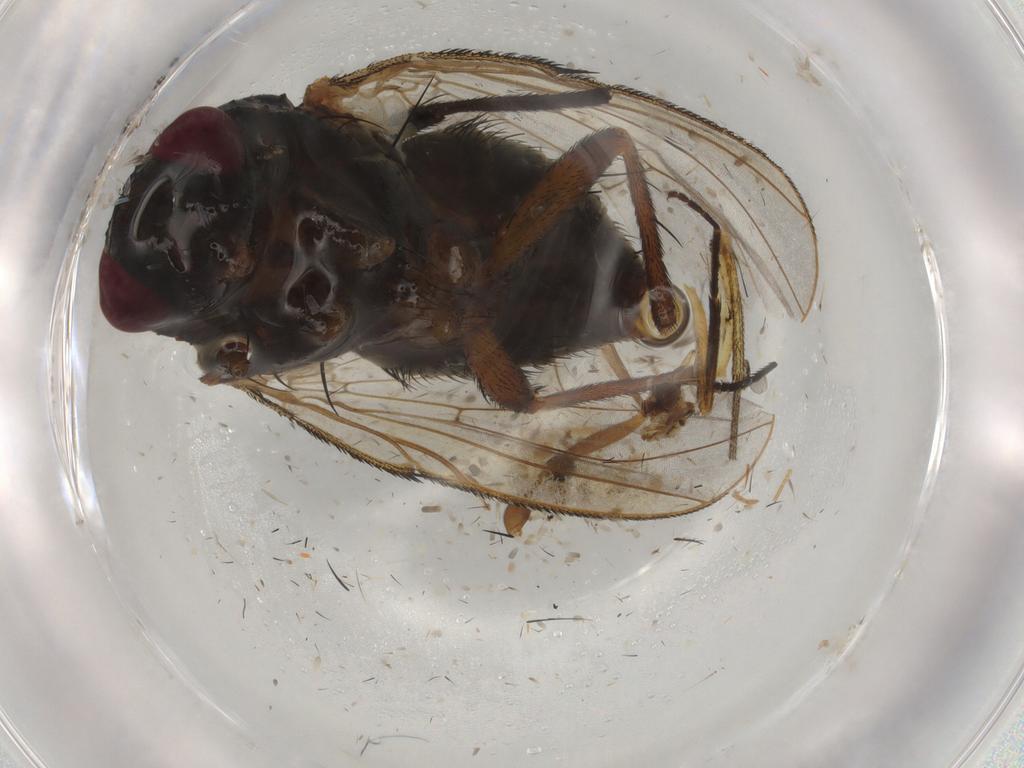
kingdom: Animalia
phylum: Arthropoda
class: Insecta
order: Diptera
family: Muscidae
